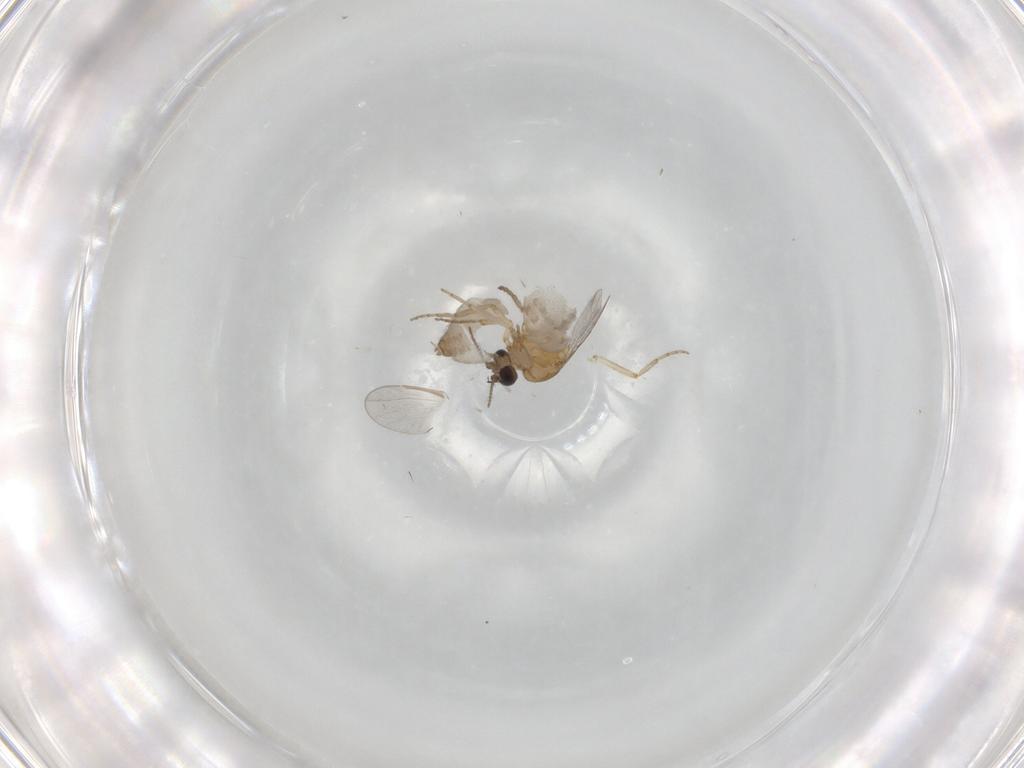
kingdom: Animalia
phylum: Arthropoda
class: Insecta
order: Diptera
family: Ceratopogonidae
